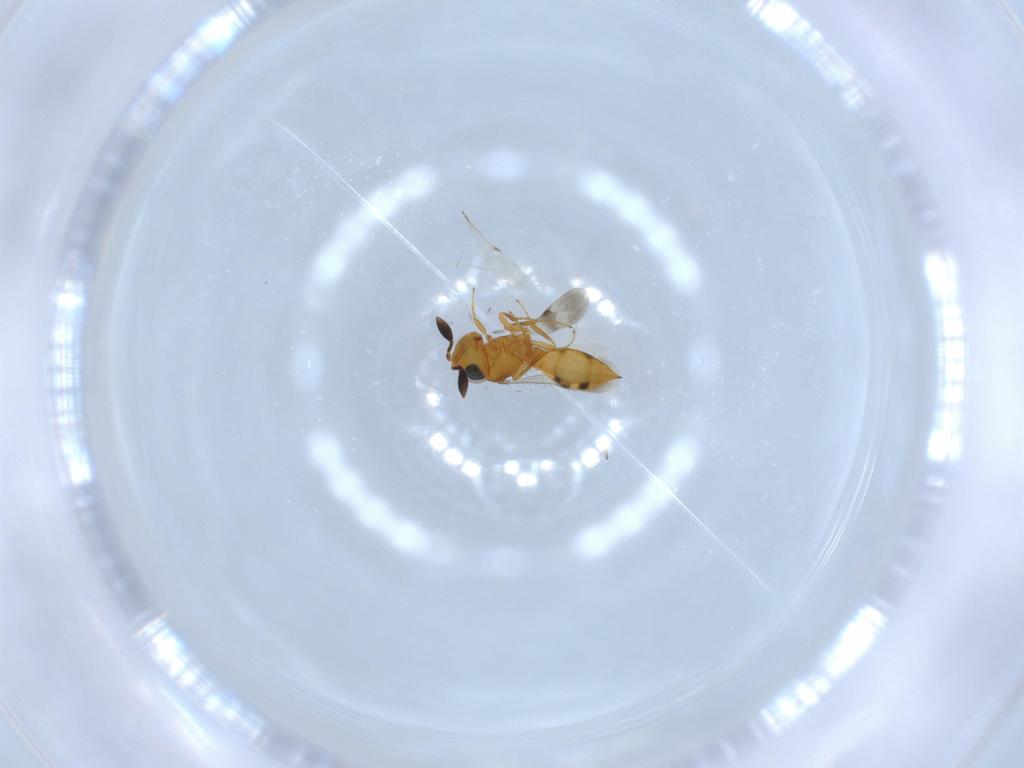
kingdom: Animalia
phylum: Arthropoda
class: Insecta
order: Hymenoptera
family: Scelionidae
